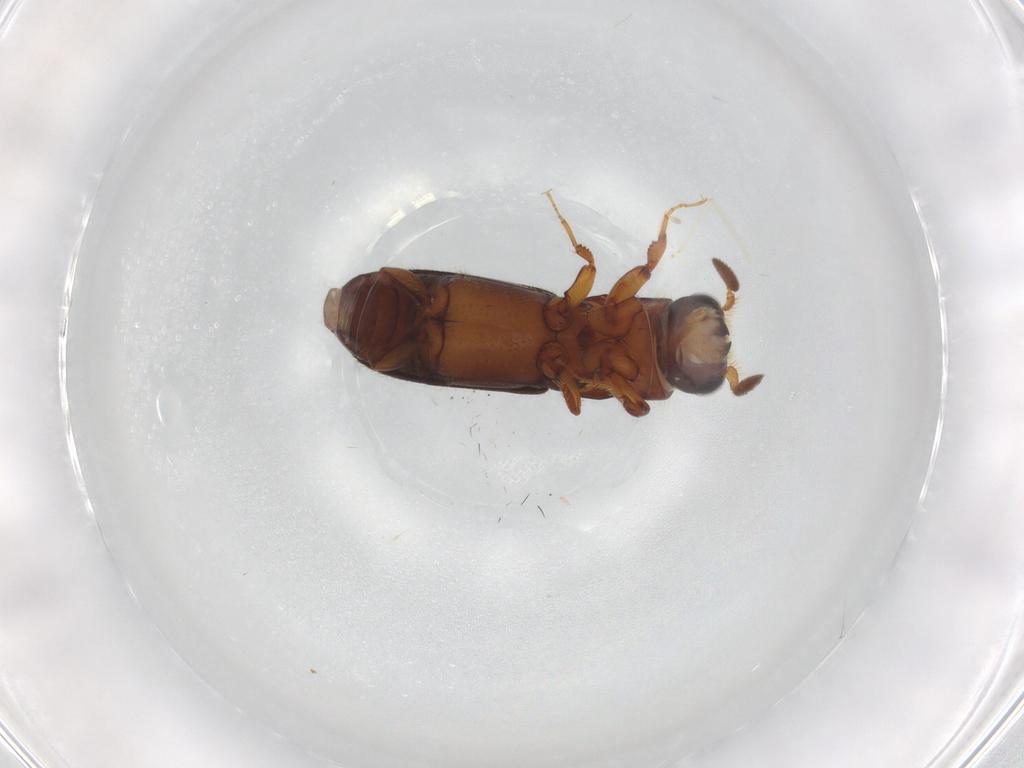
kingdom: Animalia
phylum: Arthropoda
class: Insecta
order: Coleoptera
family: Curculionidae
